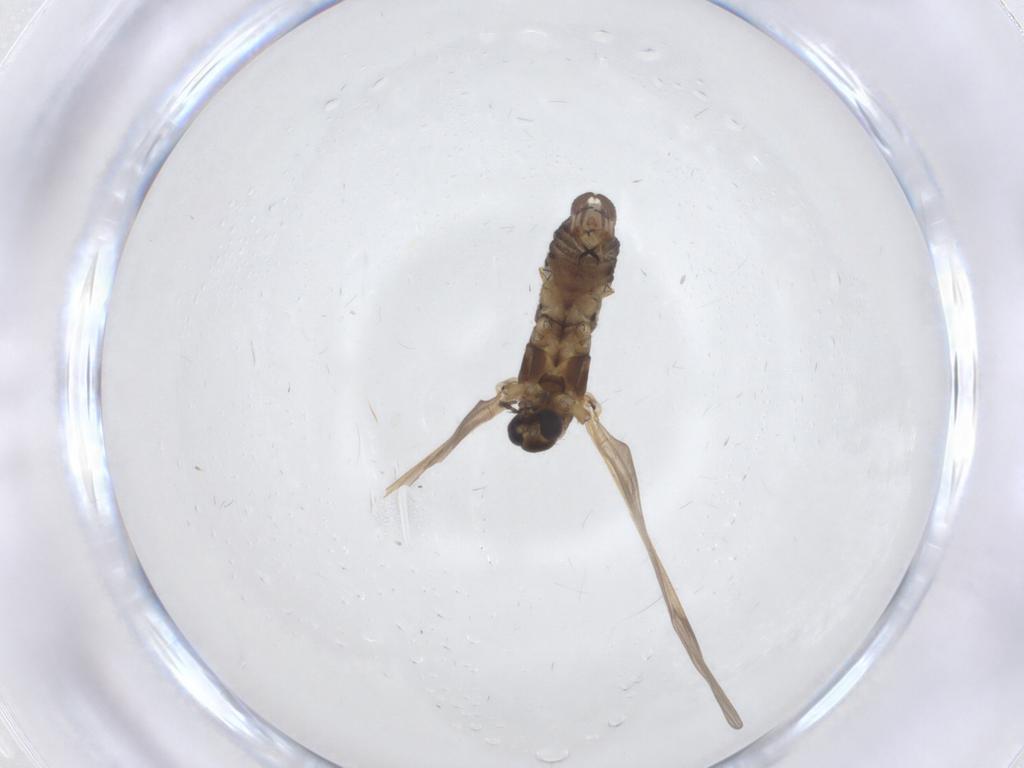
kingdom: Animalia
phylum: Arthropoda
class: Insecta
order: Diptera
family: Limoniidae
